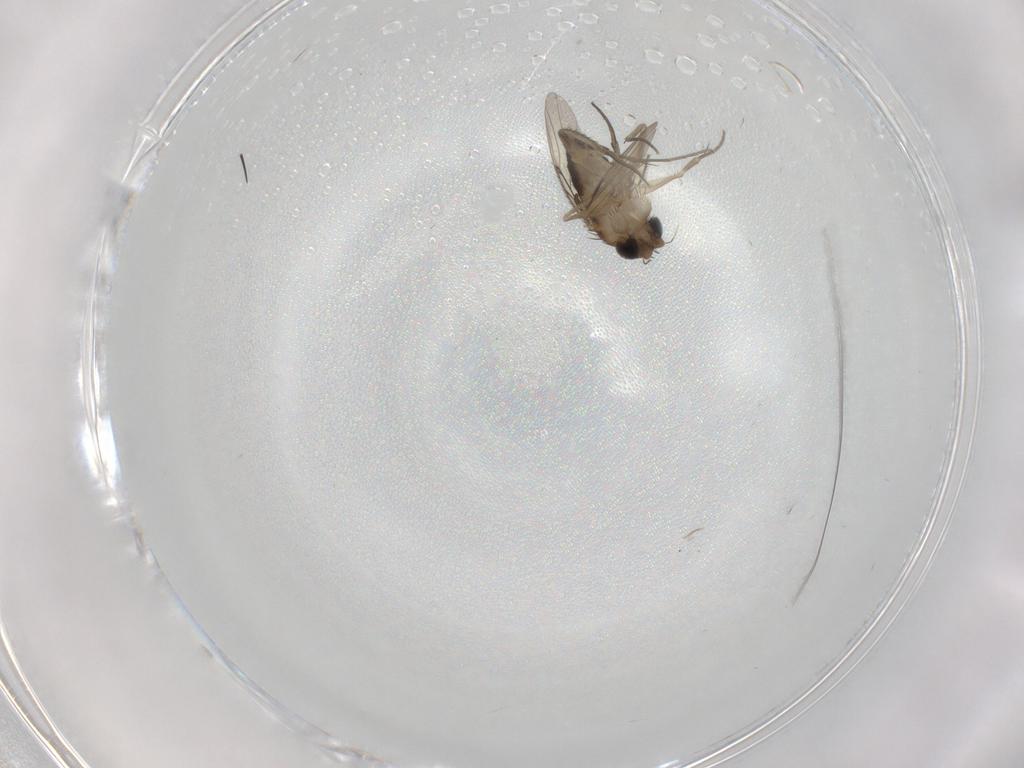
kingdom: Animalia
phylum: Arthropoda
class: Insecta
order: Diptera
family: Phoridae
